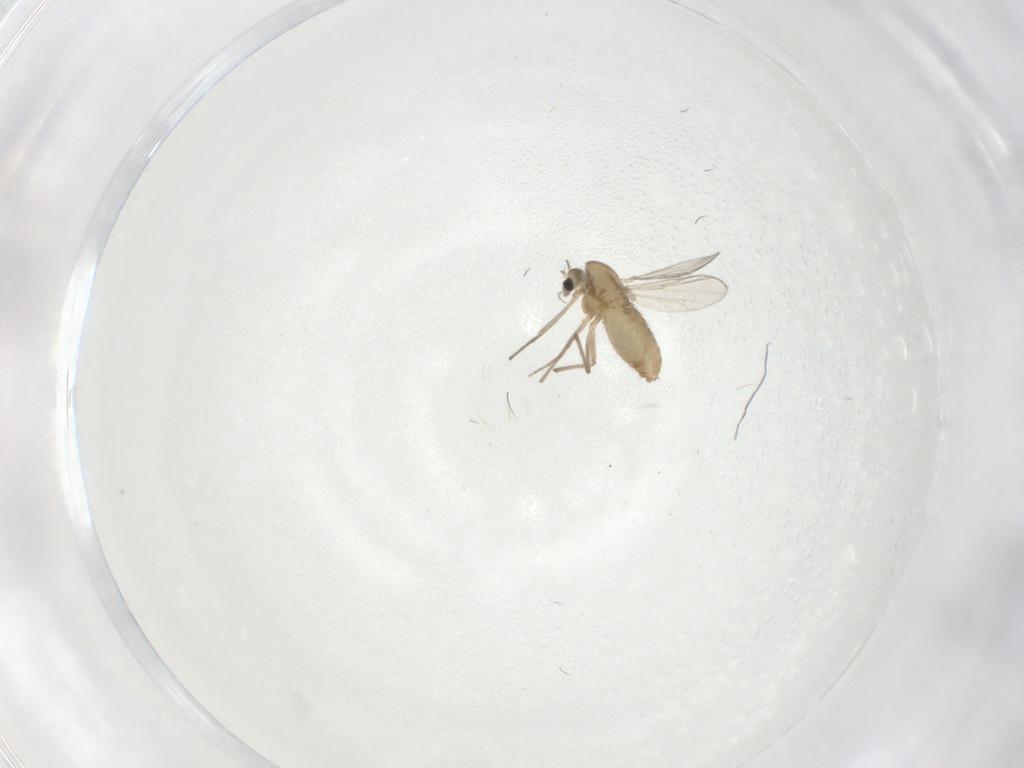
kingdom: Animalia
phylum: Arthropoda
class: Insecta
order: Diptera
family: Chironomidae
